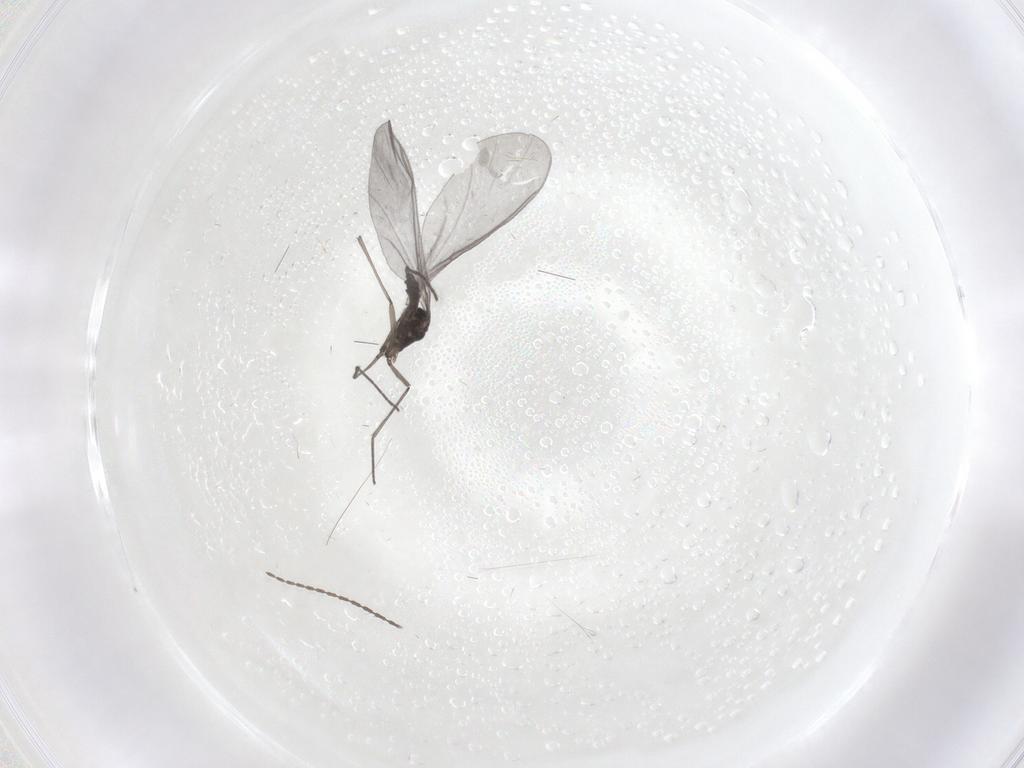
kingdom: Animalia
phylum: Arthropoda
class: Insecta
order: Diptera
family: Sciaridae
